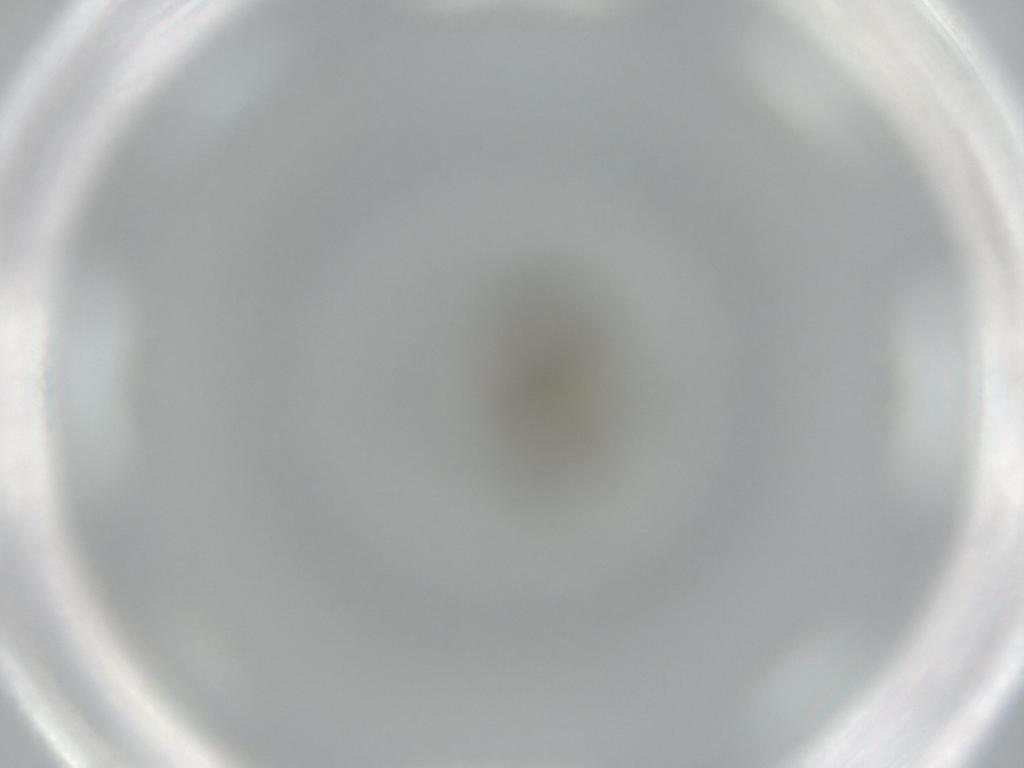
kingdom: Animalia
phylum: Arthropoda
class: Insecta
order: Diptera
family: Phoridae
